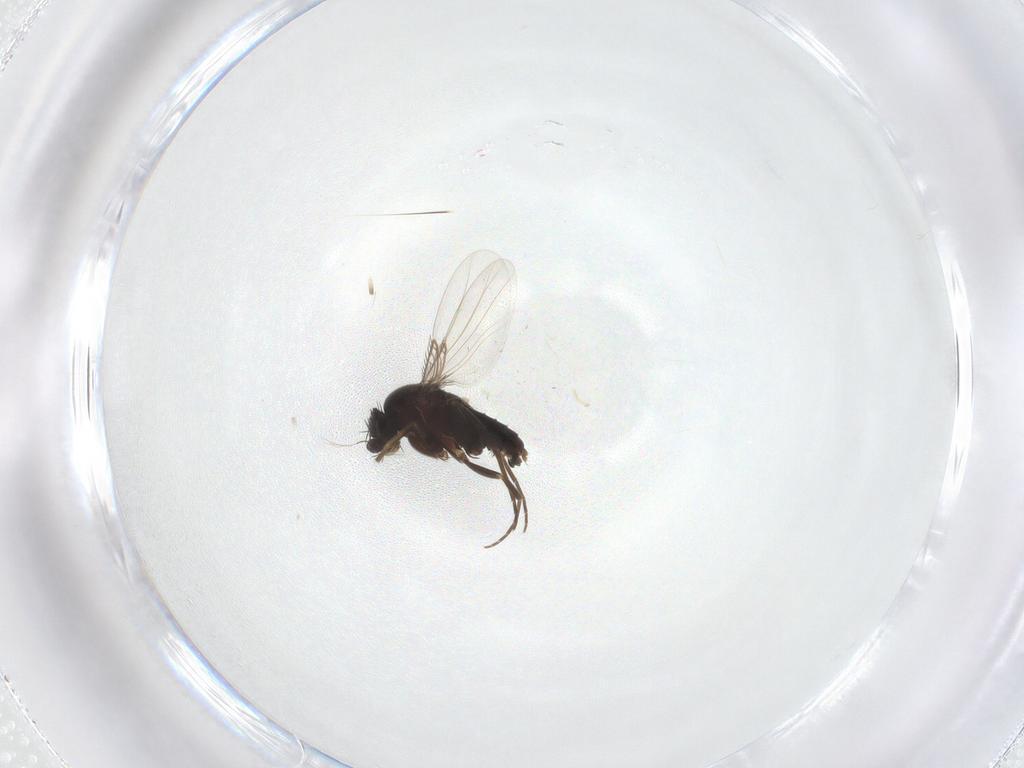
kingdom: Animalia
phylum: Arthropoda
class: Insecta
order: Diptera
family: Phoridae
